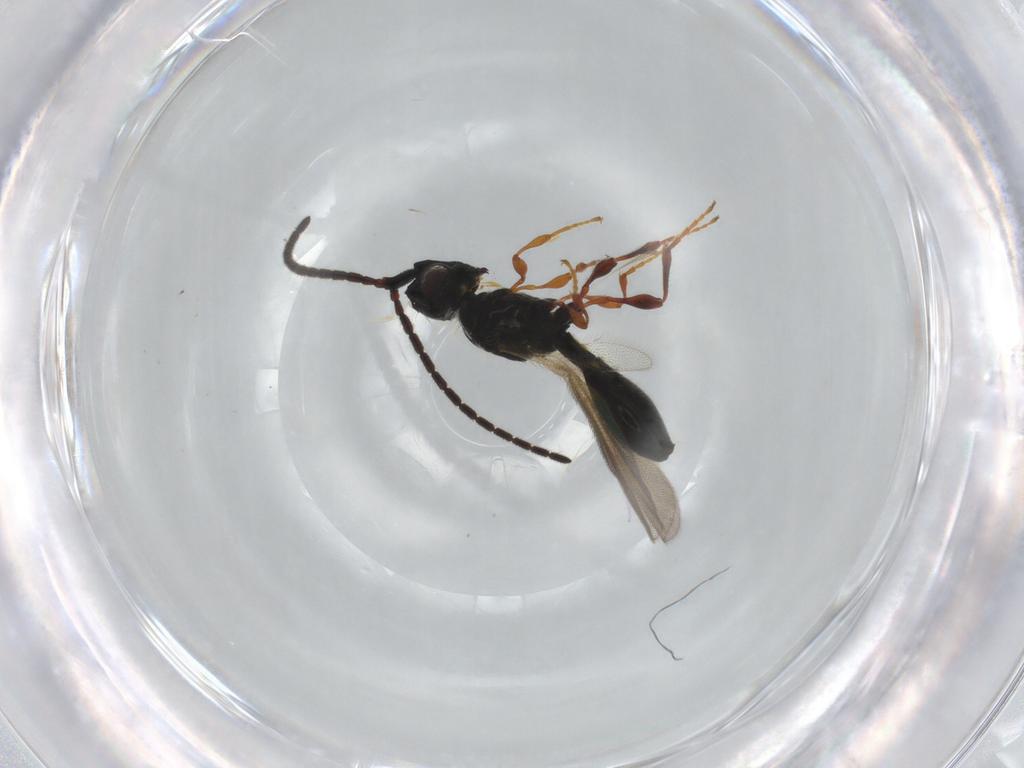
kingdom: Animalia
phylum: Arthropoda
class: Insecta
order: Hymenoptera
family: Diapriidae
